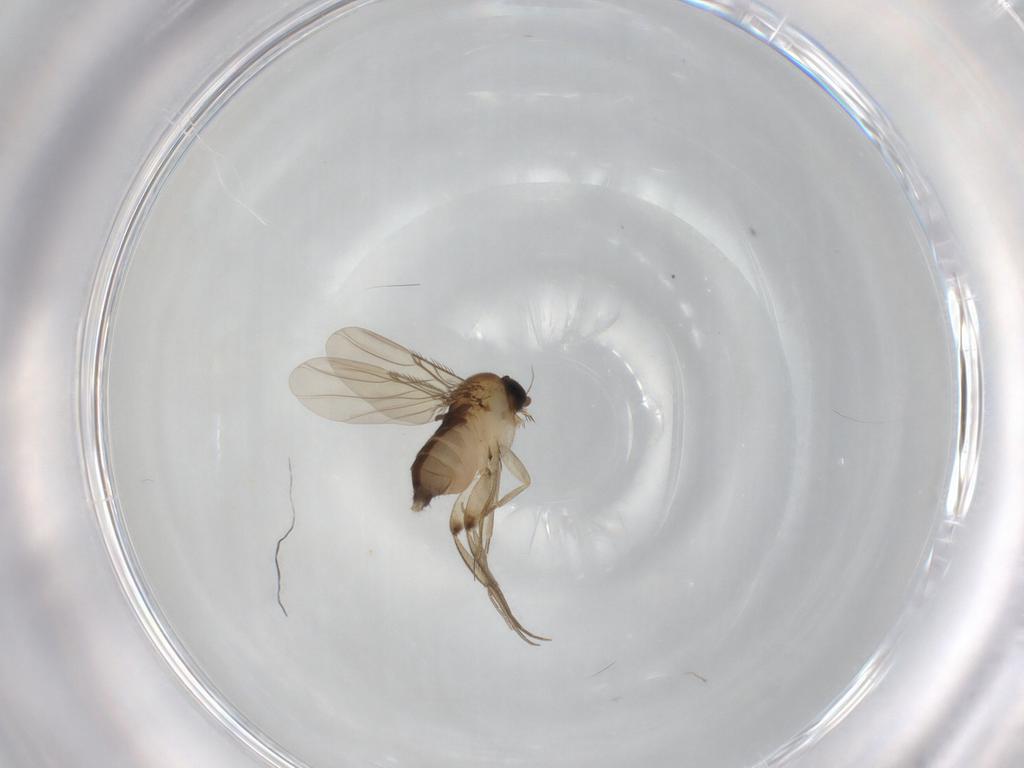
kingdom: Animalia
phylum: Arthropoda
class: Insecta
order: Diptera
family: Phoridae
